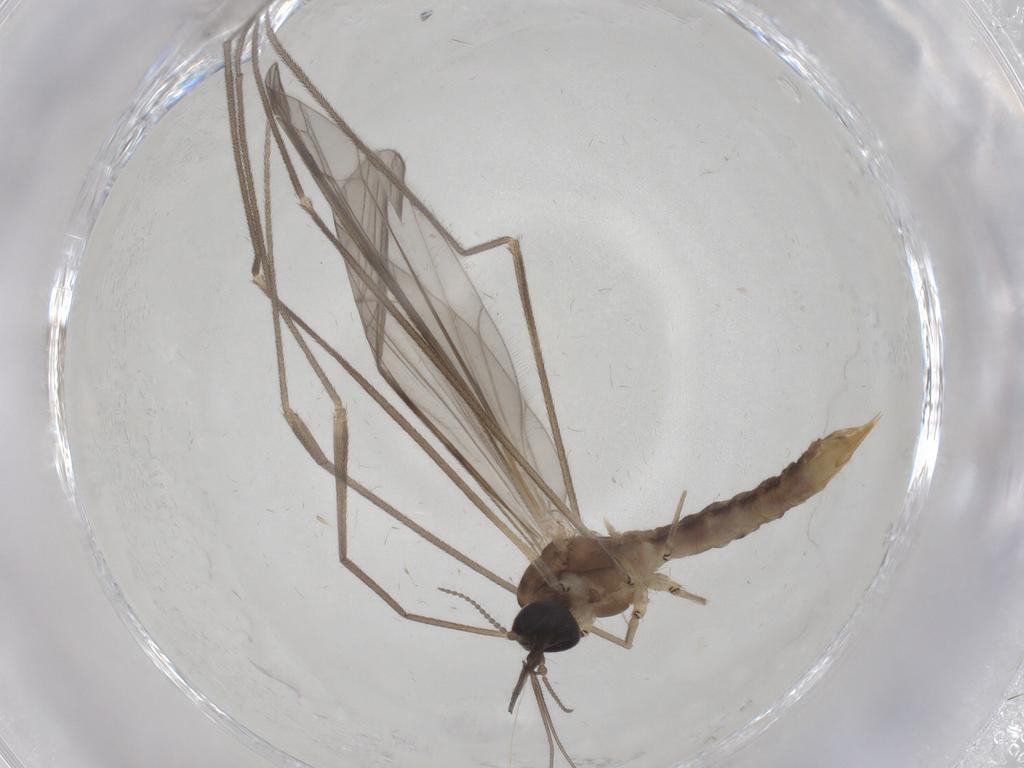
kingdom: Animalia
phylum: Arthropoda
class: Insecta
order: Diptera
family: Limoniidae
